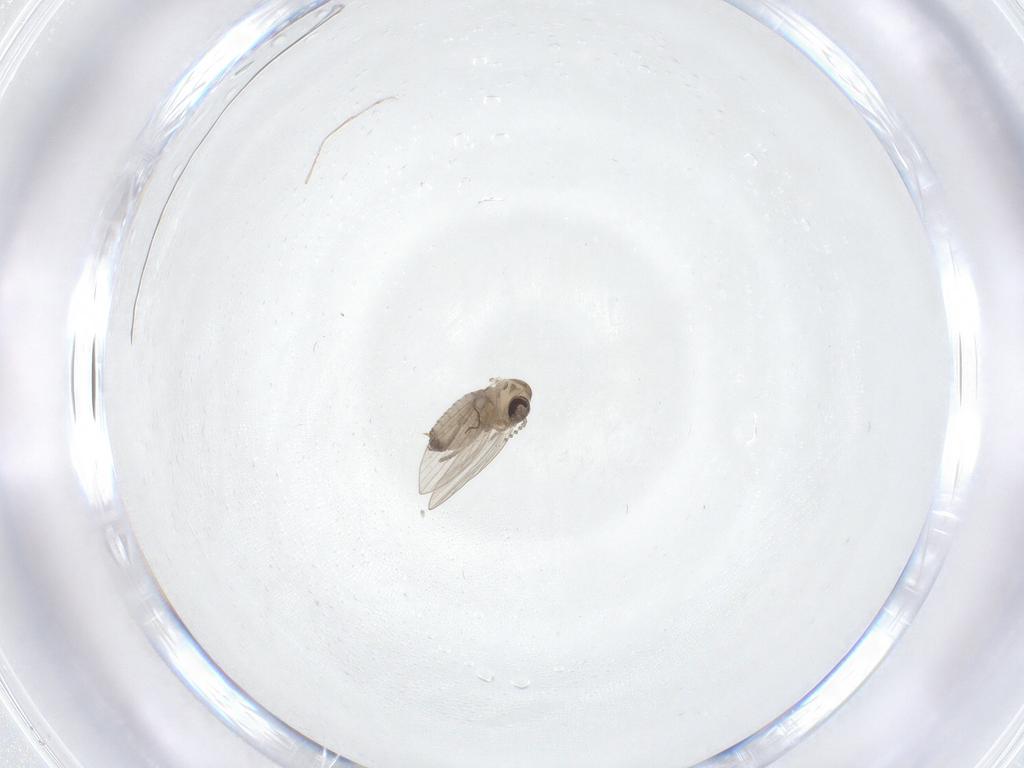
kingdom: Animalia
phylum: Arthropoda
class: Insecta
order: Diptera
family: Psychodidae
